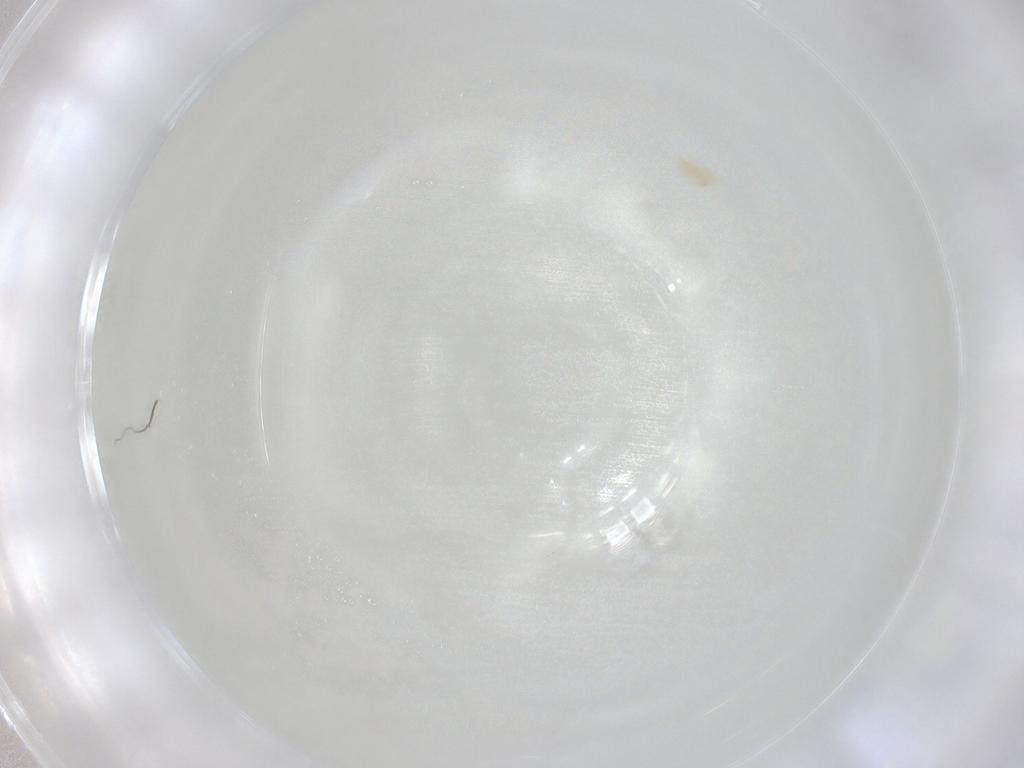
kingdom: Animalia
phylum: Arthropoda
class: Arachnida
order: Trombidiformes
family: Eupodidae
